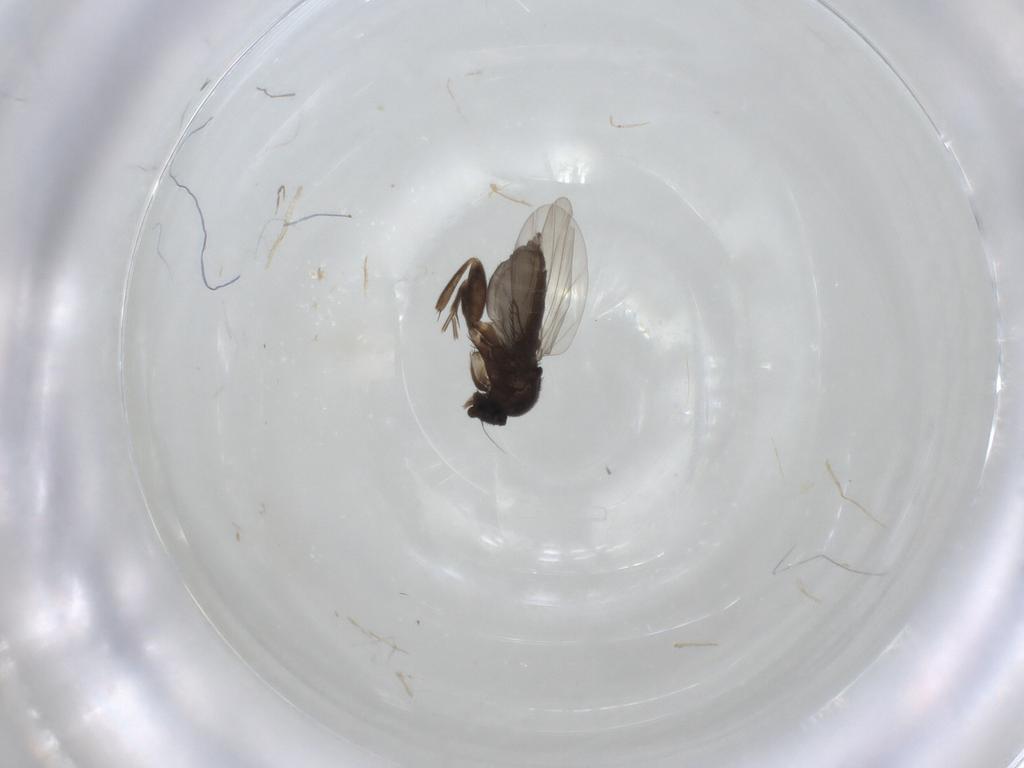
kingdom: Animalia
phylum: Arthropoda
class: Insecta
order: Diptera
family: Phoridae
